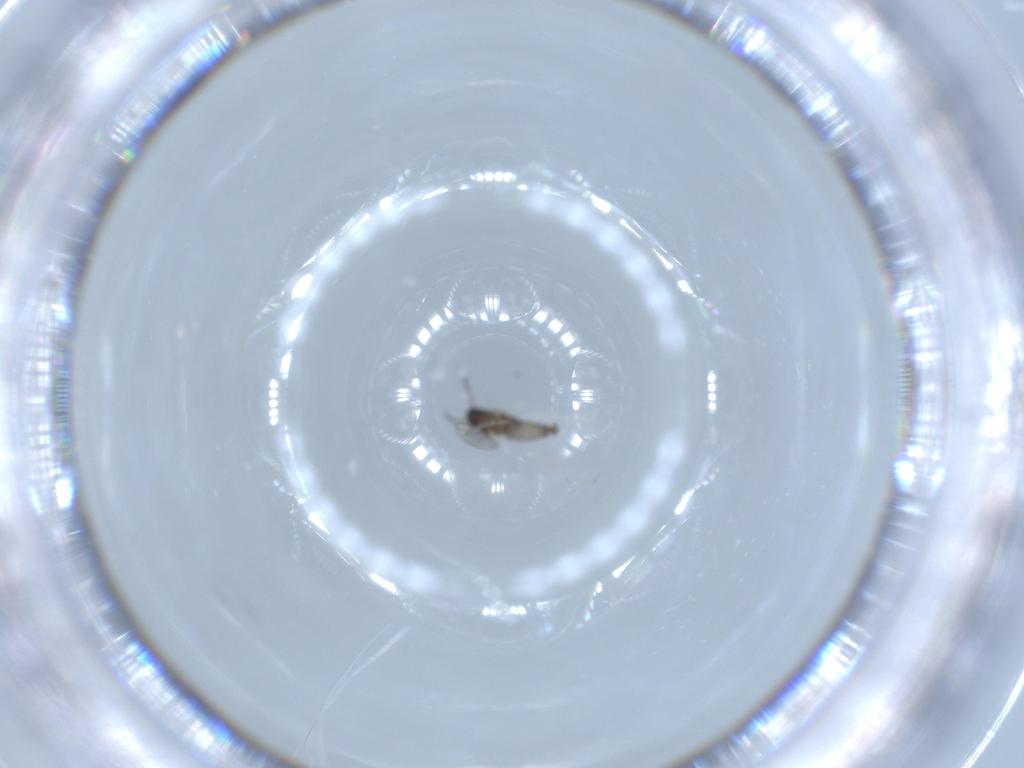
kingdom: Animalia
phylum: Arthropoda
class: Insecta
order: Diptera
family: Cecidomyiidae
